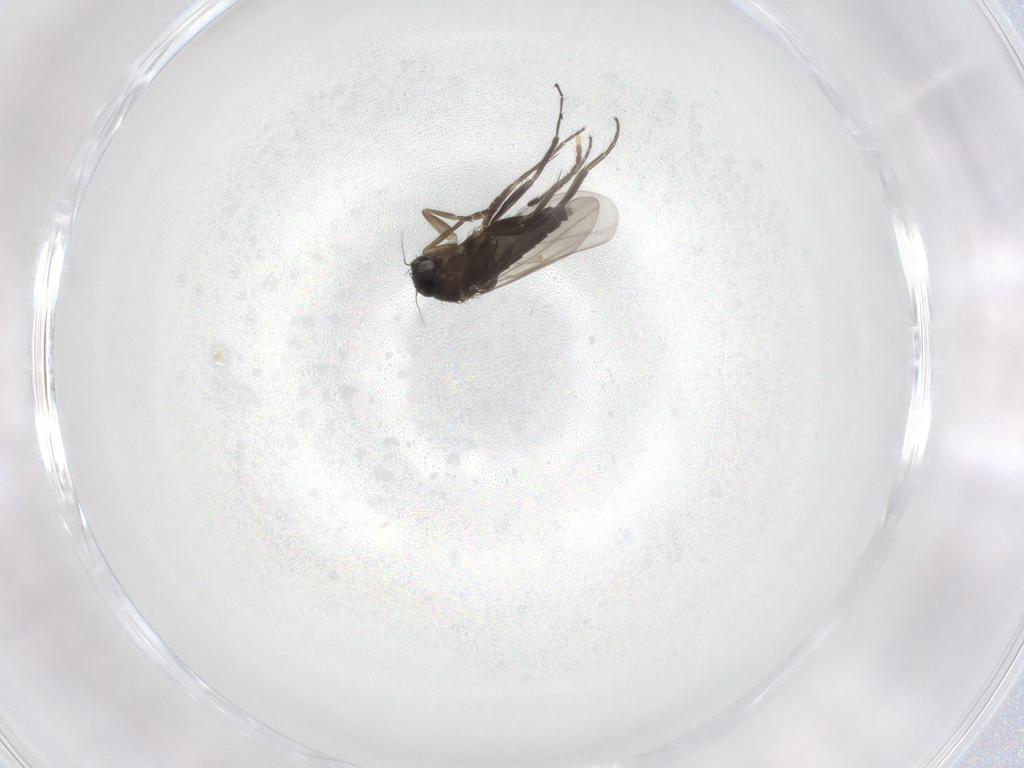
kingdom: Animalia
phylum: Arthropoda
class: Insecta
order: Diptera
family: Phoridae
